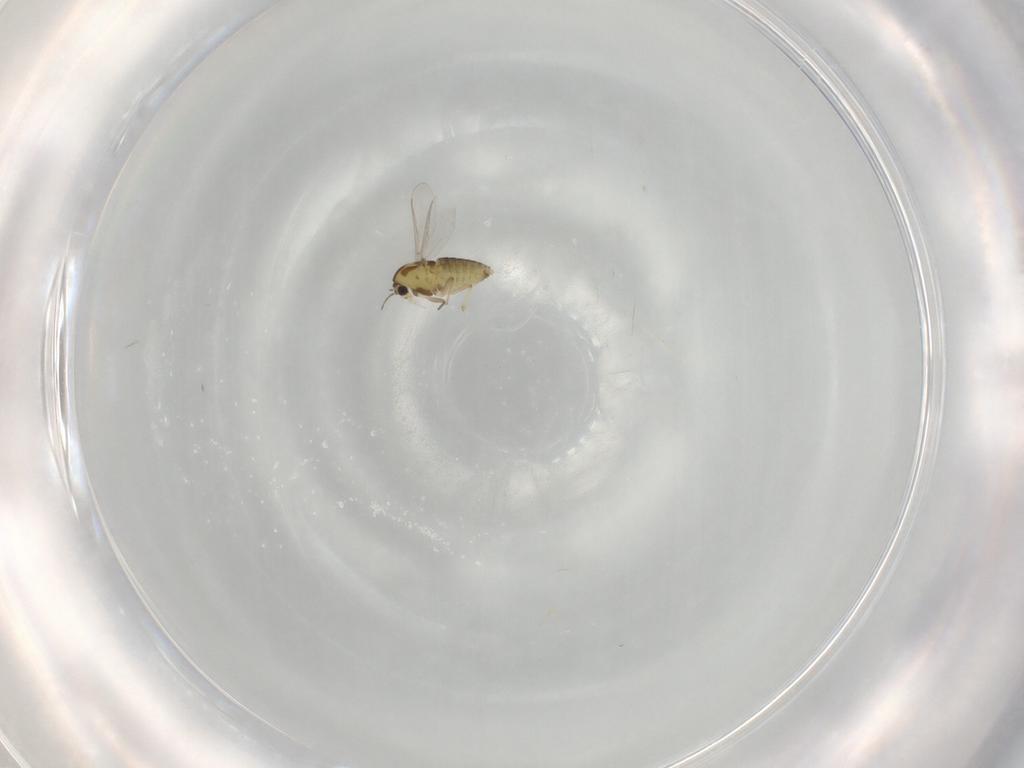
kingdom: Animalia
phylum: Arthropoda
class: Insecta
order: Diptera
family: Chironomidae
